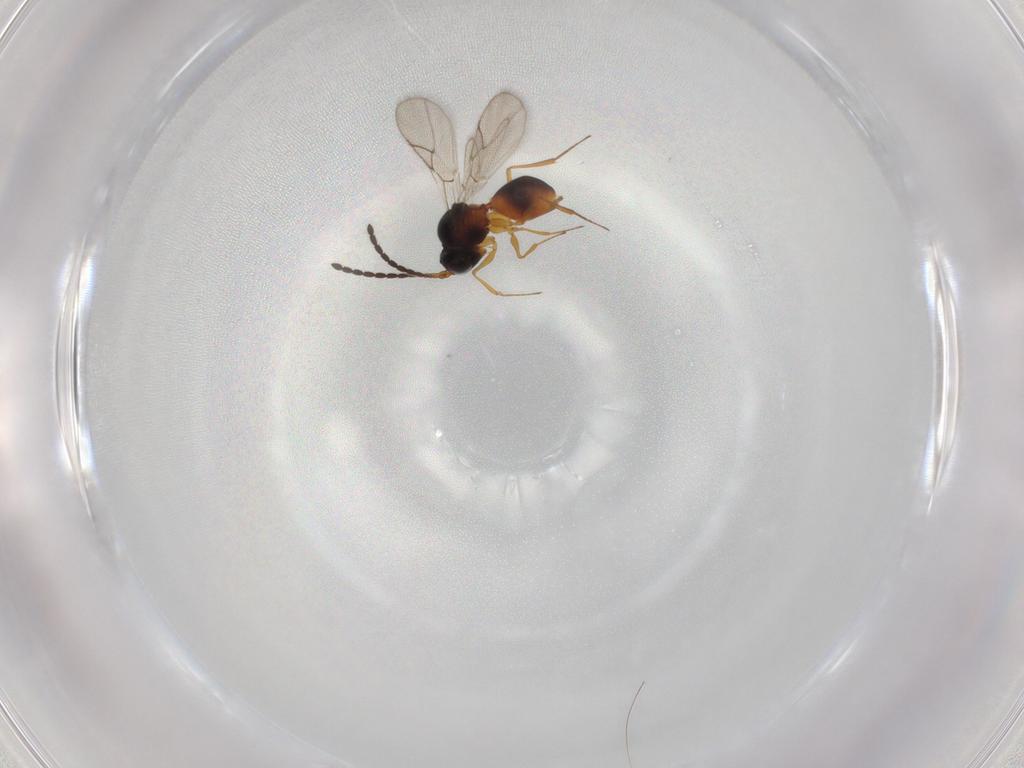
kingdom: Animalia
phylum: Arthropoda
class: Insecta
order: Hymenoptera
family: Figitidae
